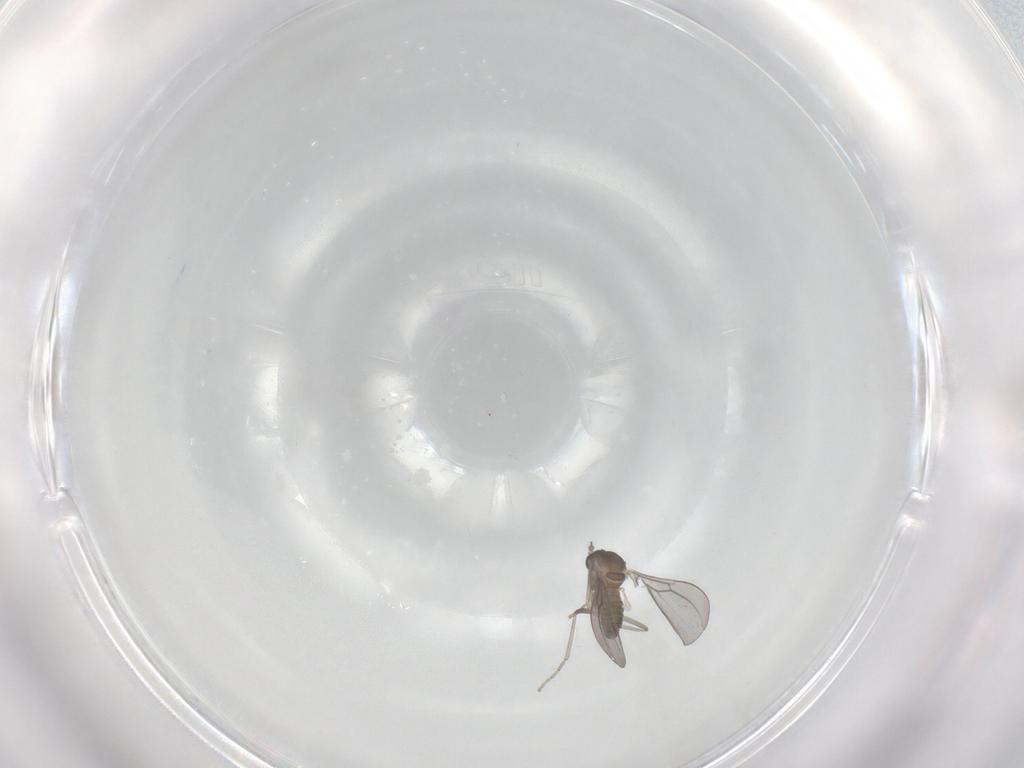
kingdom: Animalia
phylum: Arthropoda
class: Insecta
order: Diptera
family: Cecidomyiidae
